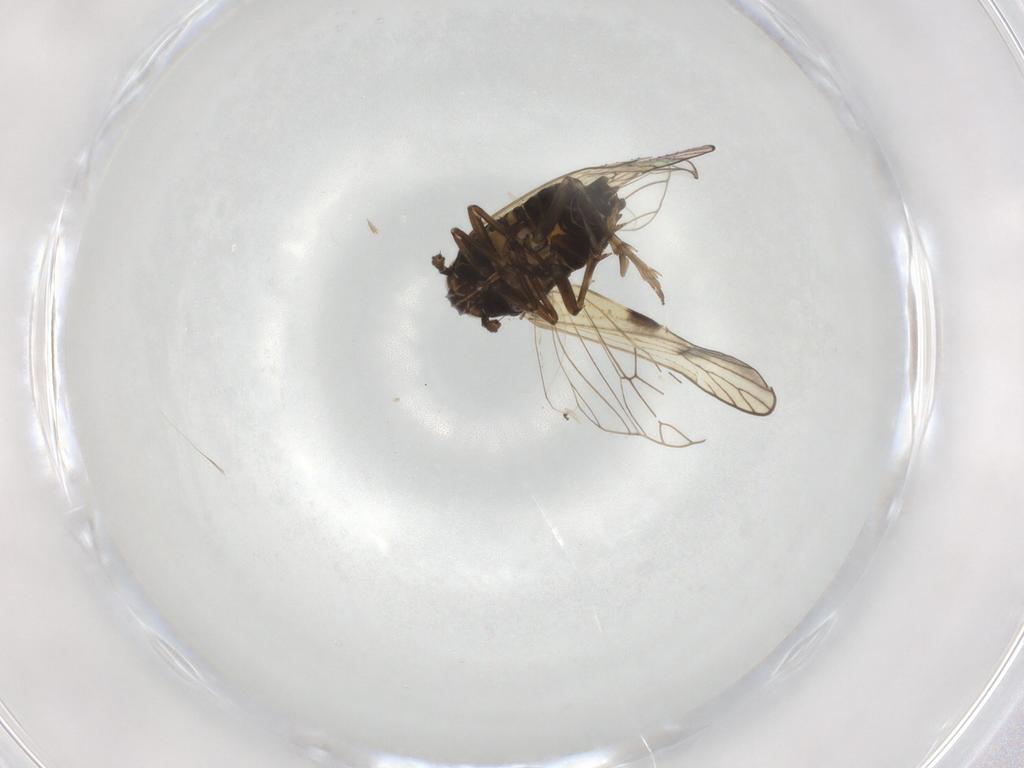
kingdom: Animalia
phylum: Arthropoda
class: Insecta
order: Hemiptera
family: Delphacidae
